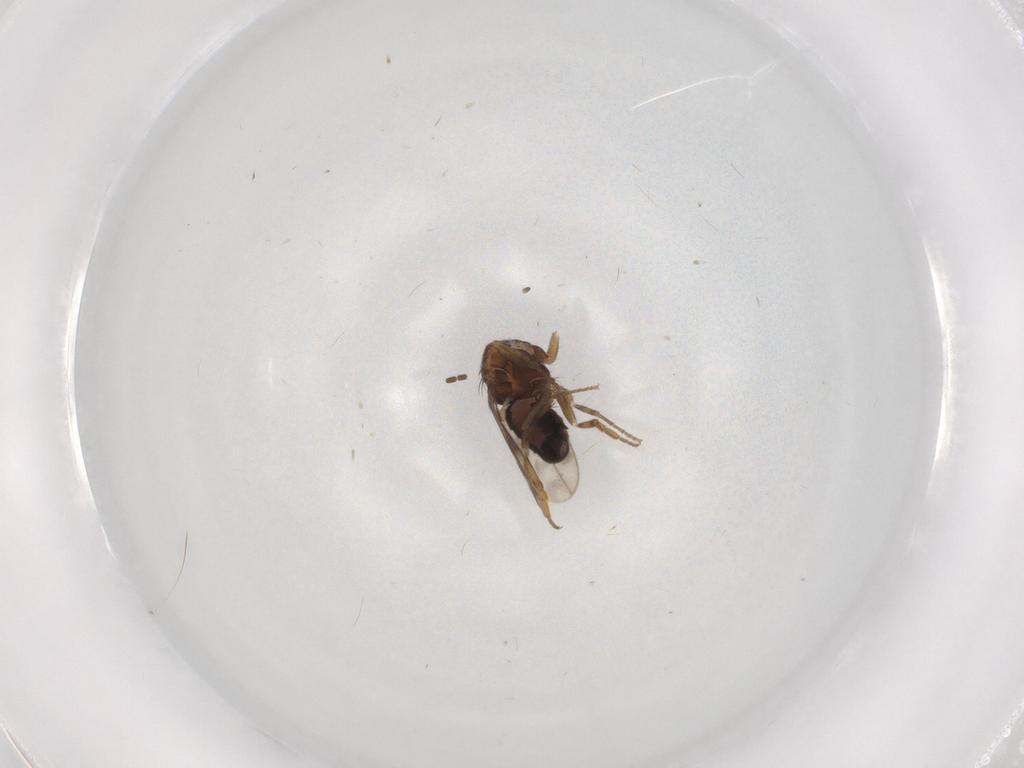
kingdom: Animalia
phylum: Arthropoda
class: Insecta
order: Diptera
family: Sphaeroceridae
